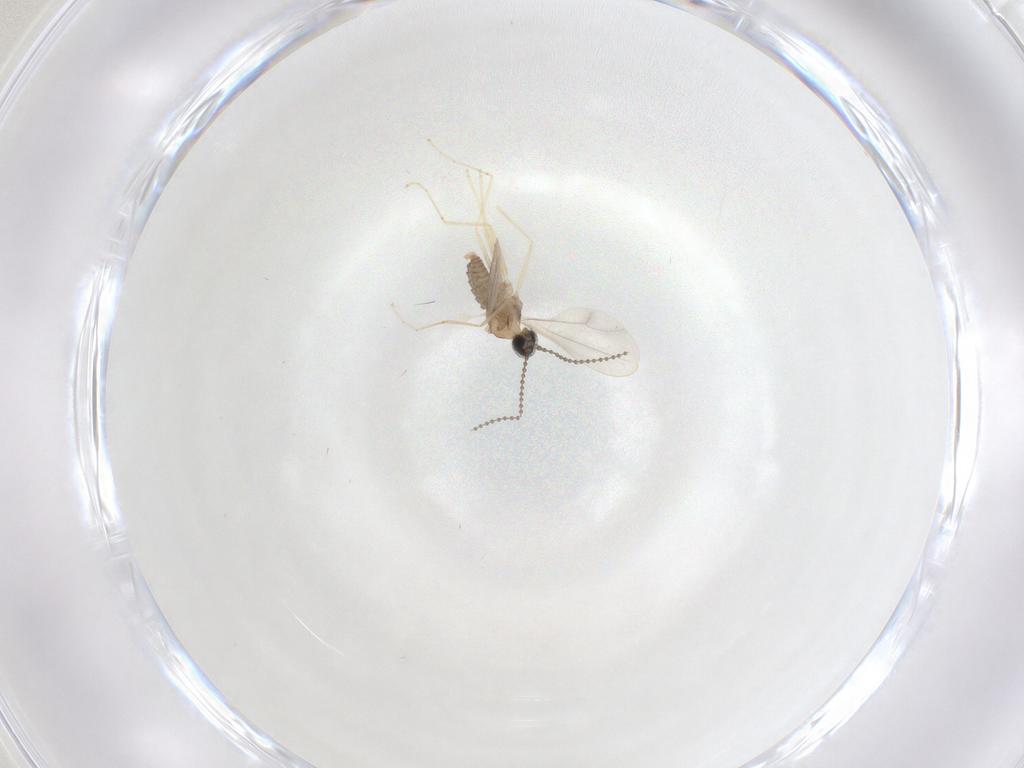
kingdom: Animalia
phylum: Arthropoda
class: Insecta
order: Diptera
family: Cecidomyiidae
